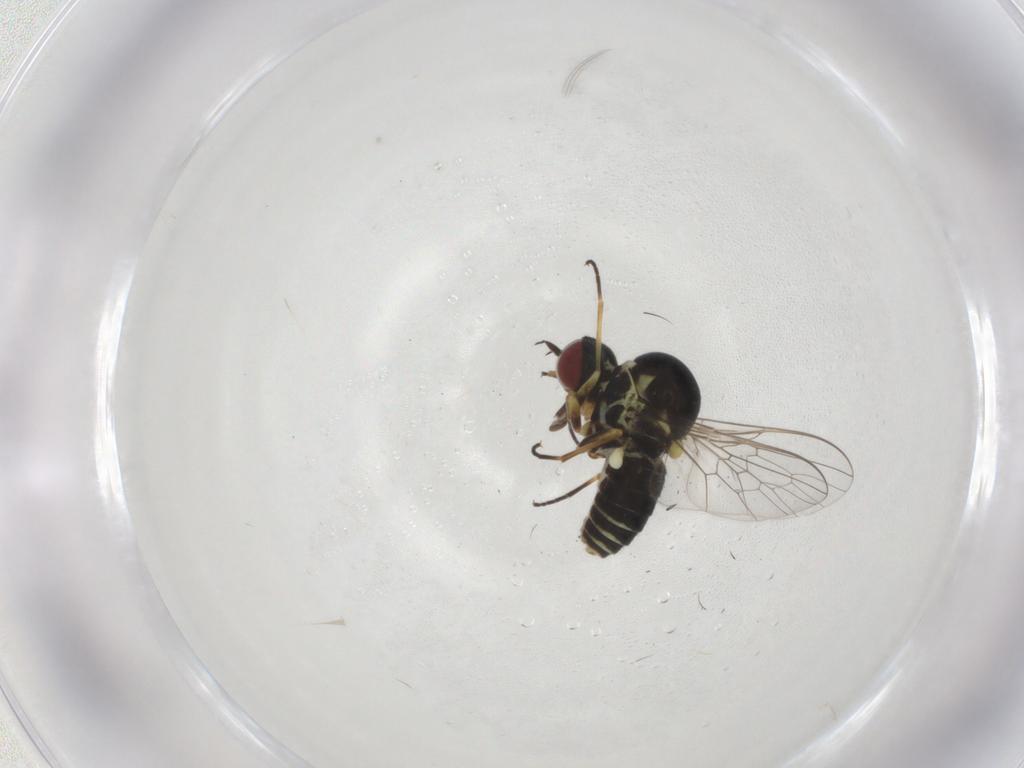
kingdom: Animalia
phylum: Arthropoda
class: Insecta
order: Diptera
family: Bombyliidae
